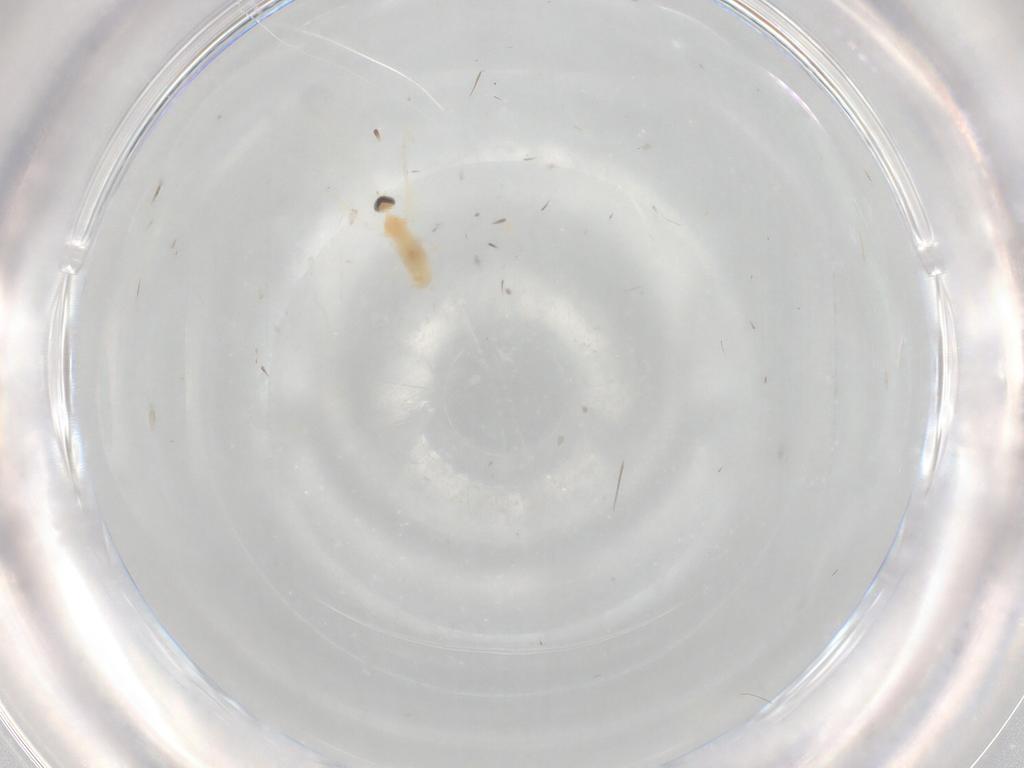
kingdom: Animalia
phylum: Arthropoda
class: Insecta
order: Diptera
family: Cecidomyiidae
